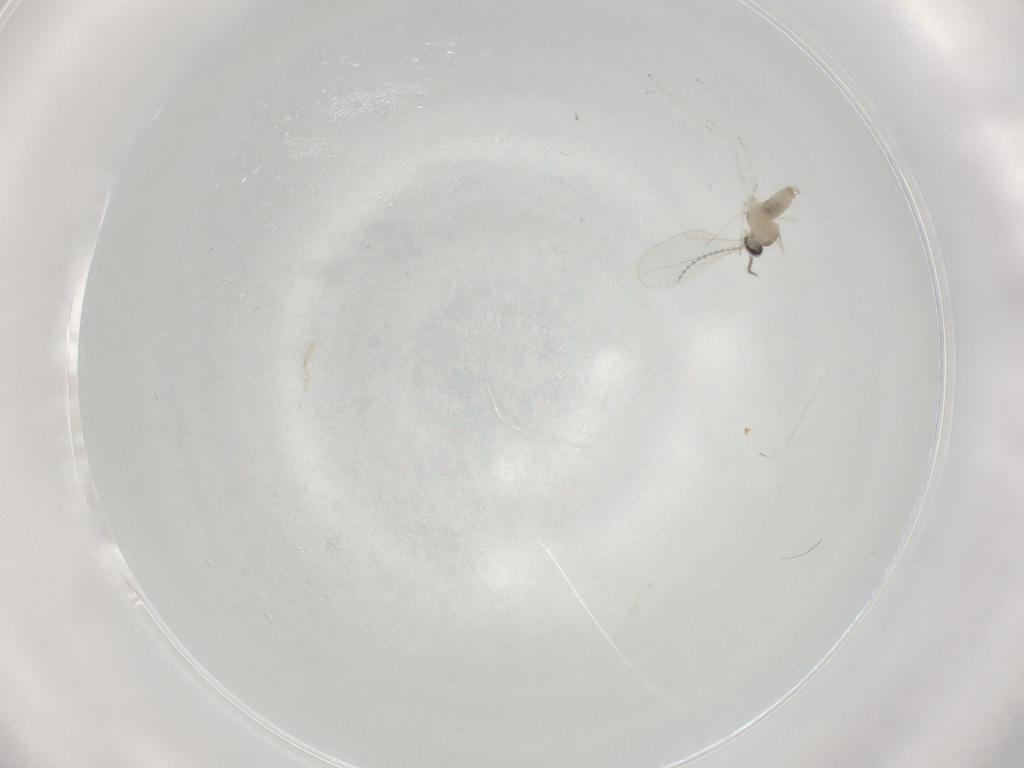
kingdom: Animalia
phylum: Arthropoda
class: Insecta
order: Diptera
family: Cecidomyiidae
